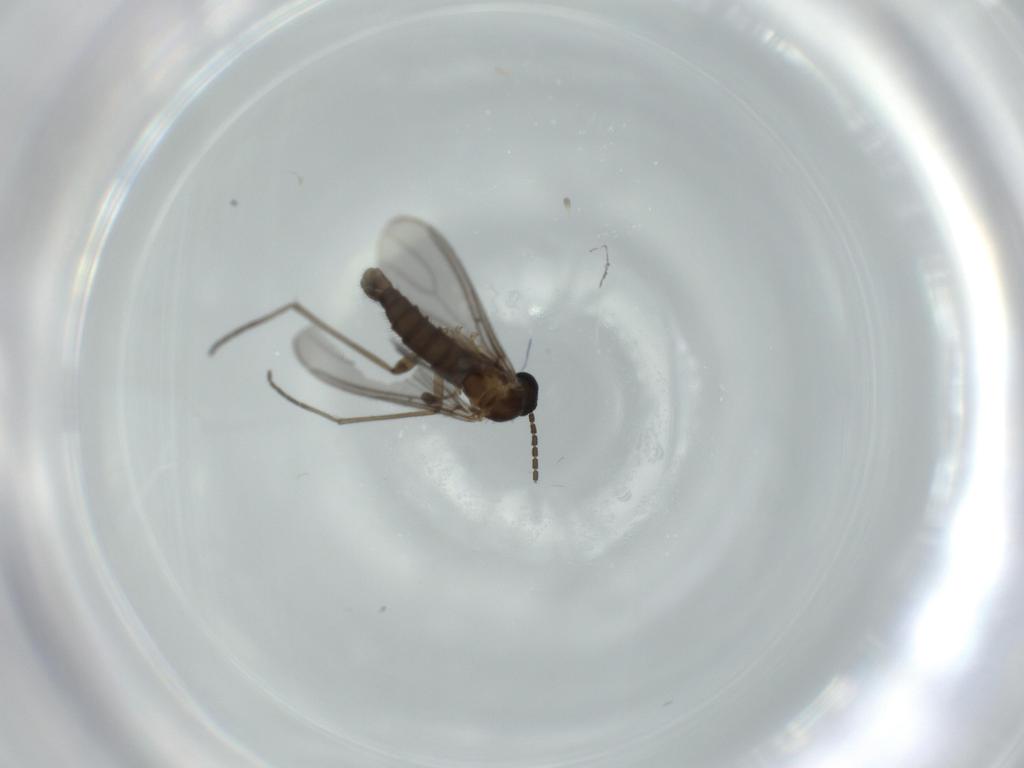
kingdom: Animalia
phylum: Arthropoda
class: Insecta
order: Diptera
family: Sciaridae
